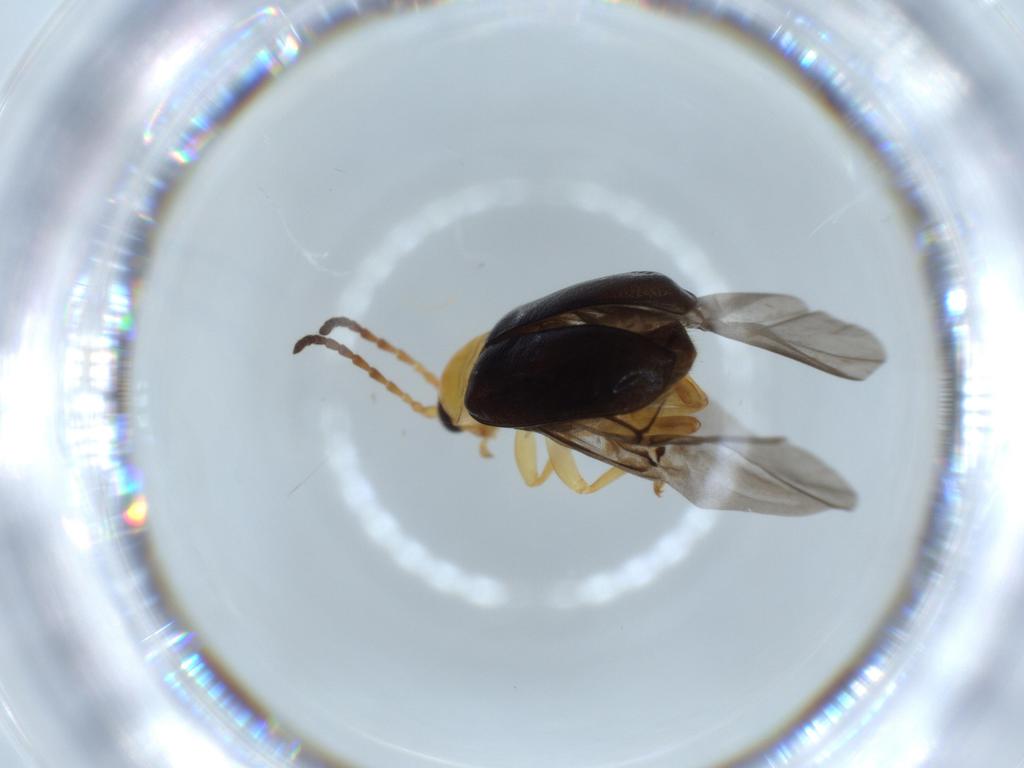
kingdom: Animalia
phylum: Arthropoda
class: Insecta
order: Coleoptera
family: Chrysomelidae
